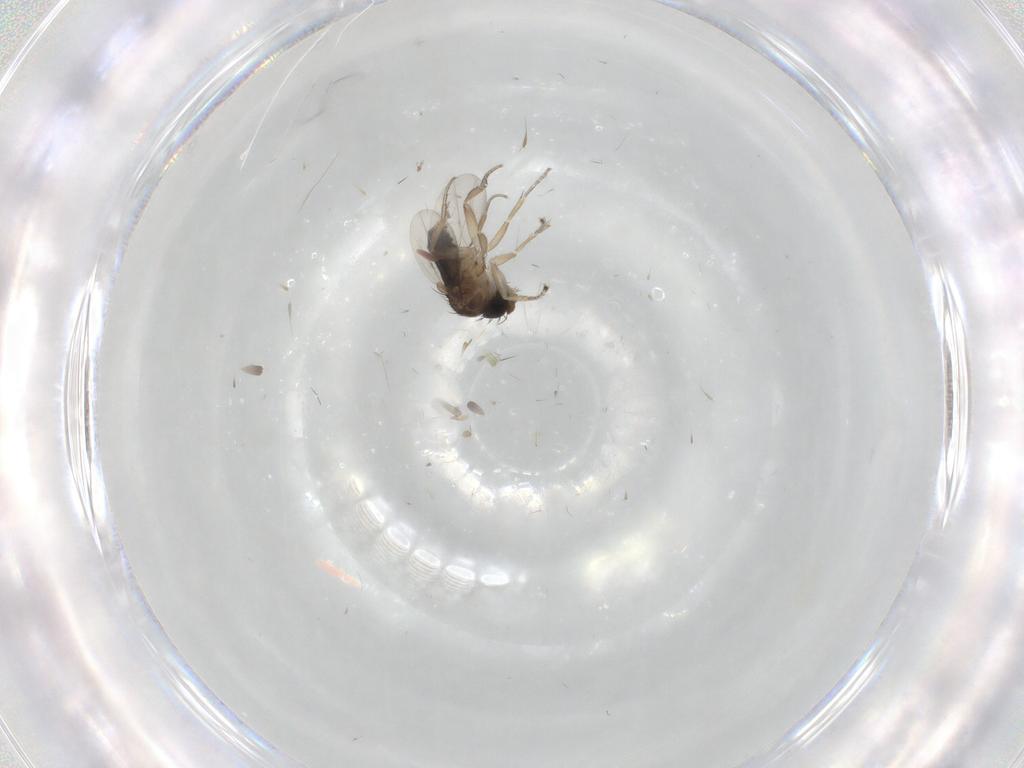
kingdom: Animalia
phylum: Arthropoda
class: Insecta
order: Diptera
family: Phoridae
